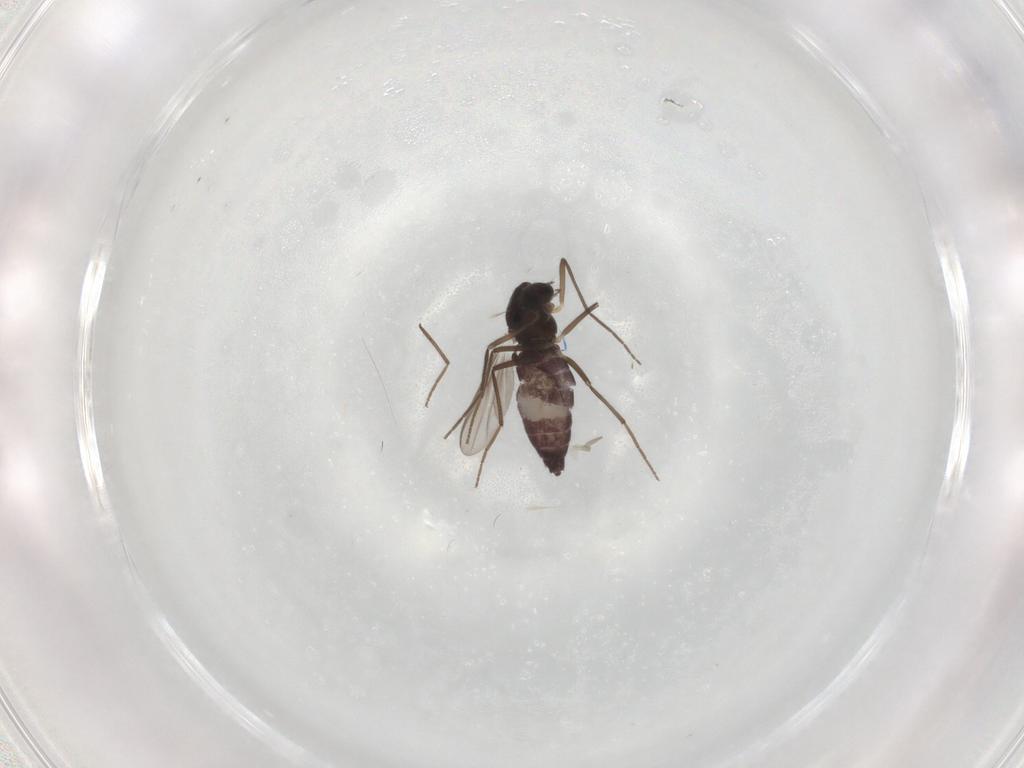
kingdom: Animalia
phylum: Arthropoda
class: Insecta
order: Diptera
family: Chironomidae
